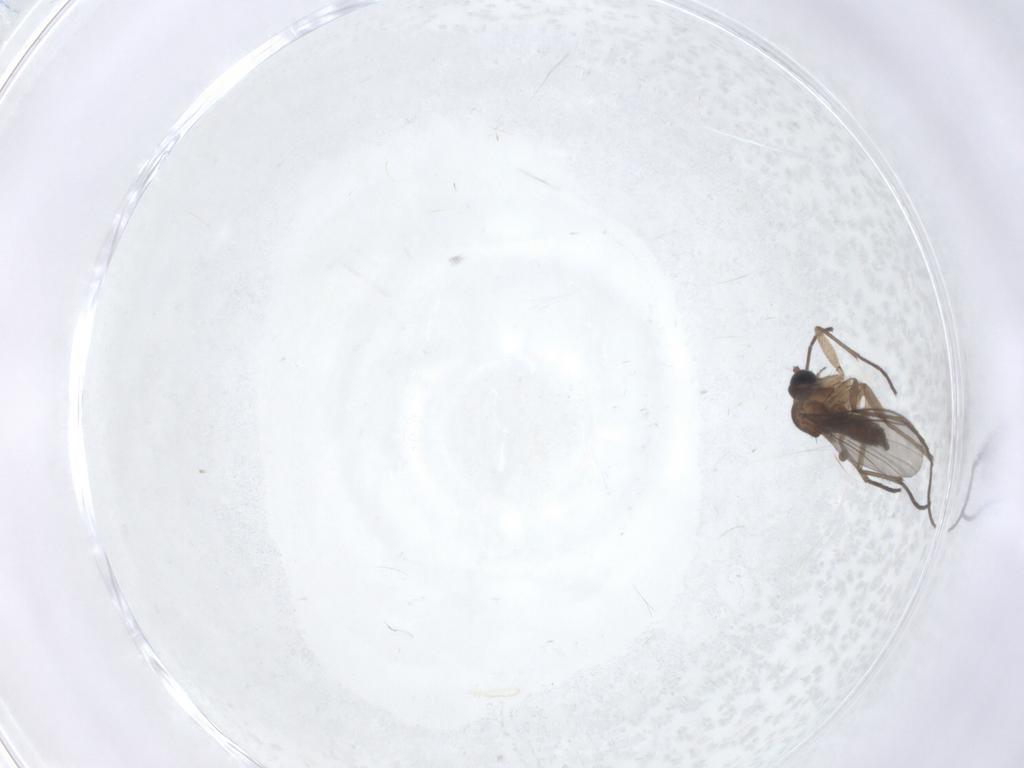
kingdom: Animalia
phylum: Arthropoda
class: Insecta
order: Diptera
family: Sciaridae
